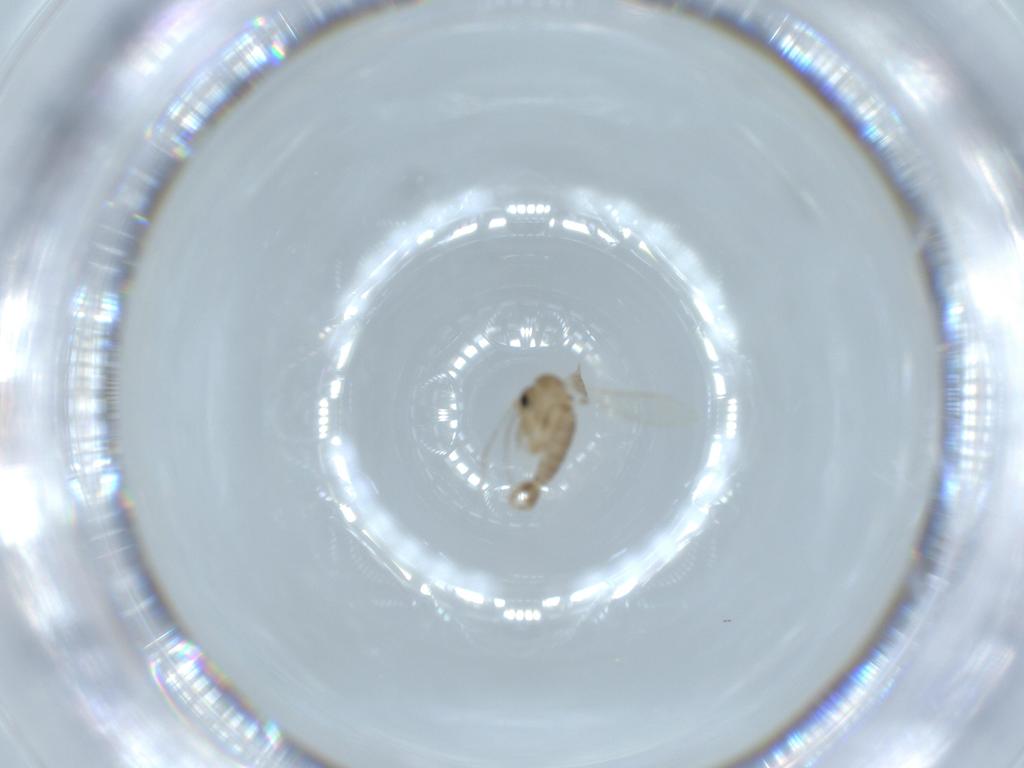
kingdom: Animalia
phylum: Arthropoda
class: Insecta
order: Diptera
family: Psychodidae
